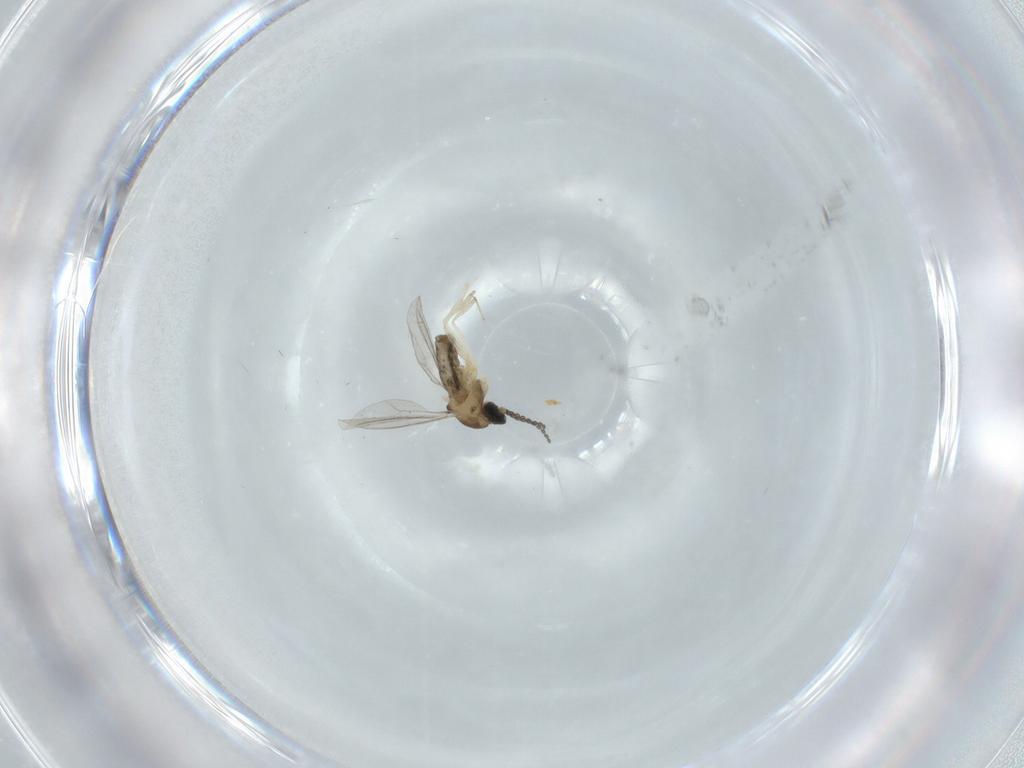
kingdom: Animalia
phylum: Arthropoda
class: Insecta
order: Diptera
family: Cecidomyiidae
